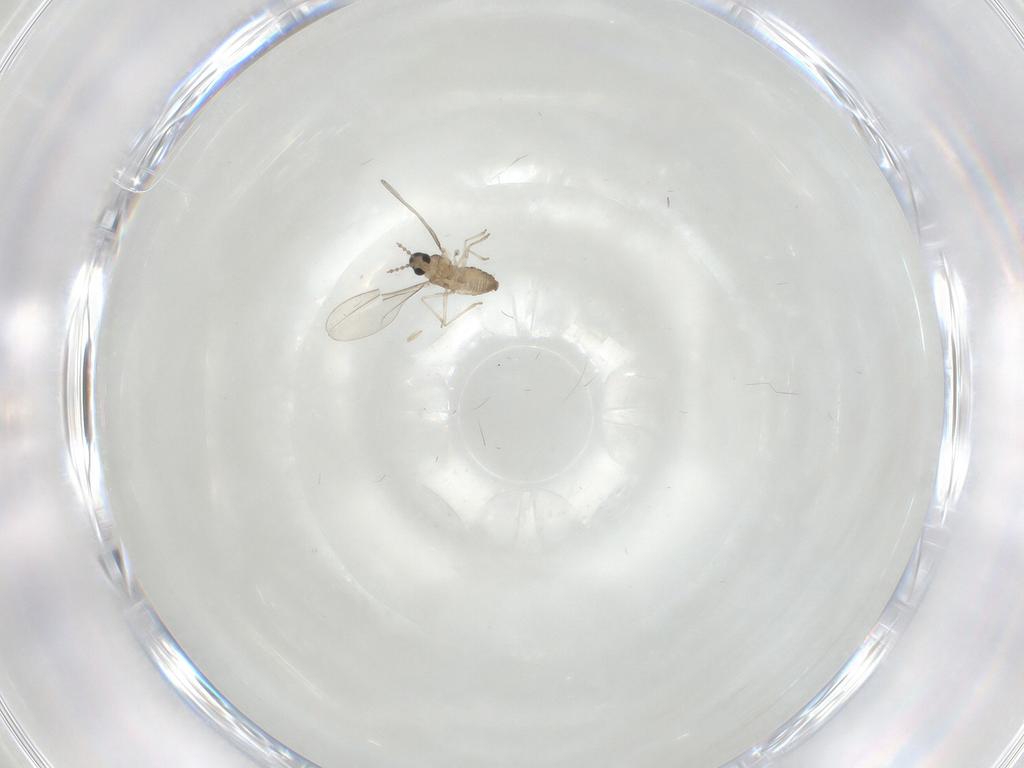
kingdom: Animalia
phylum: Arthropoda
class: Insecta
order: Diptera
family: Cecidomyiidae
